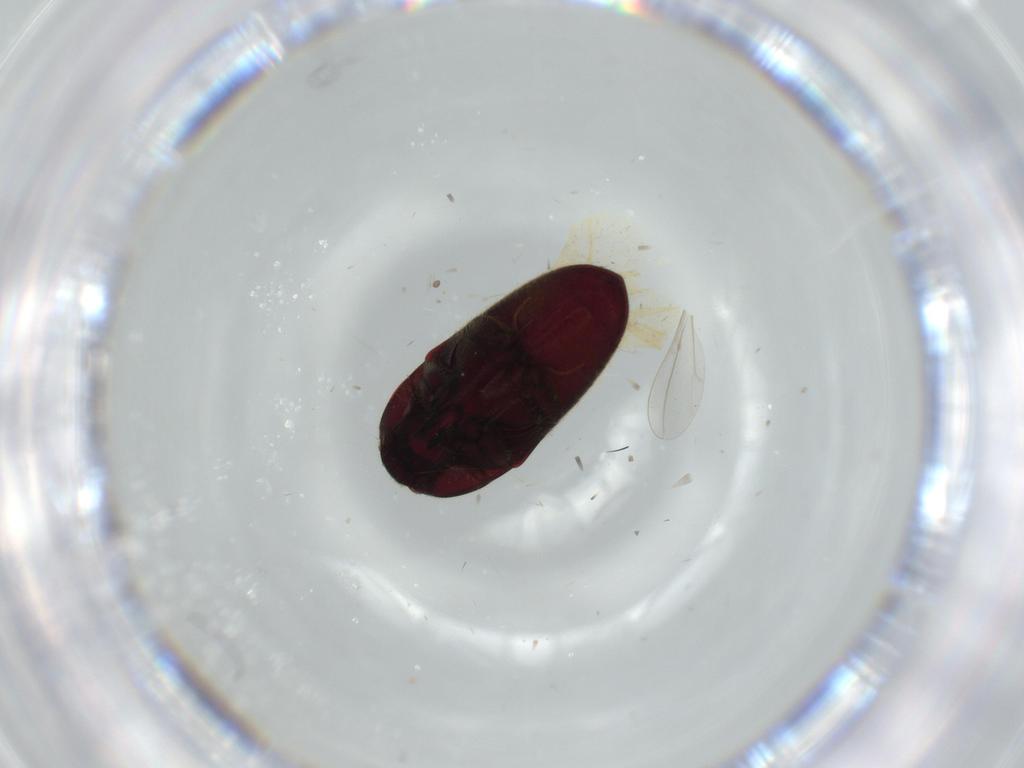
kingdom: Animalia
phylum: Arthropoda
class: Insecta
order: Coleoptera
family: Throscidae
